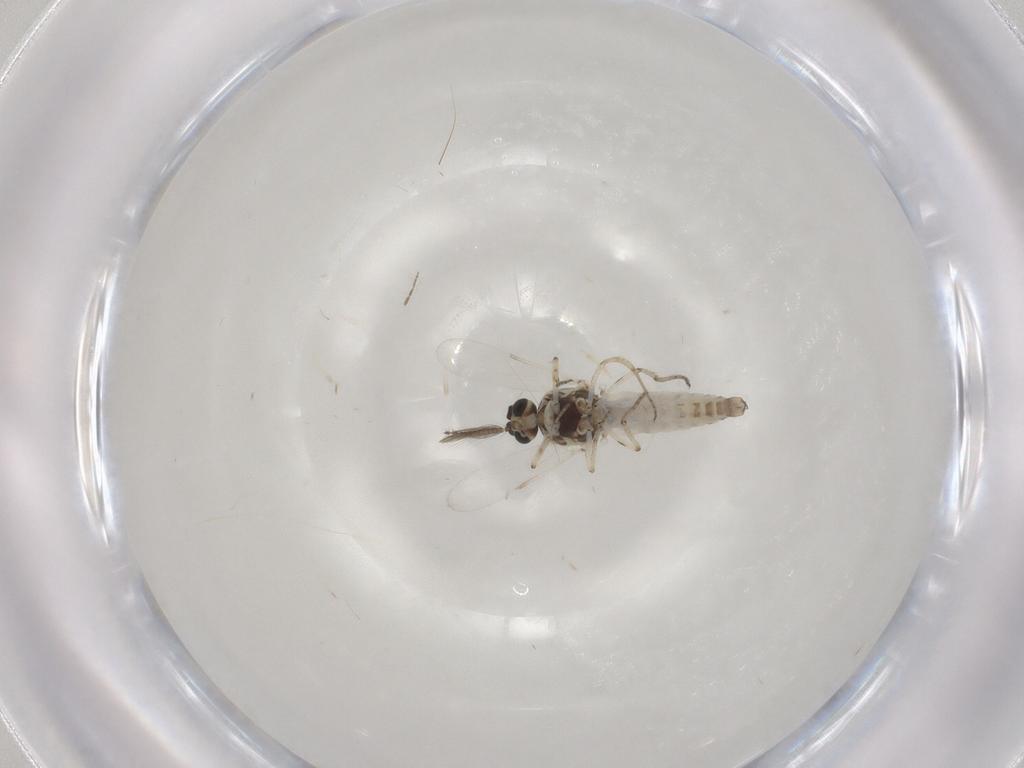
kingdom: Animalia
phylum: Arthropoda
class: Insecta
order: Diptera
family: Ceratopogonidae
